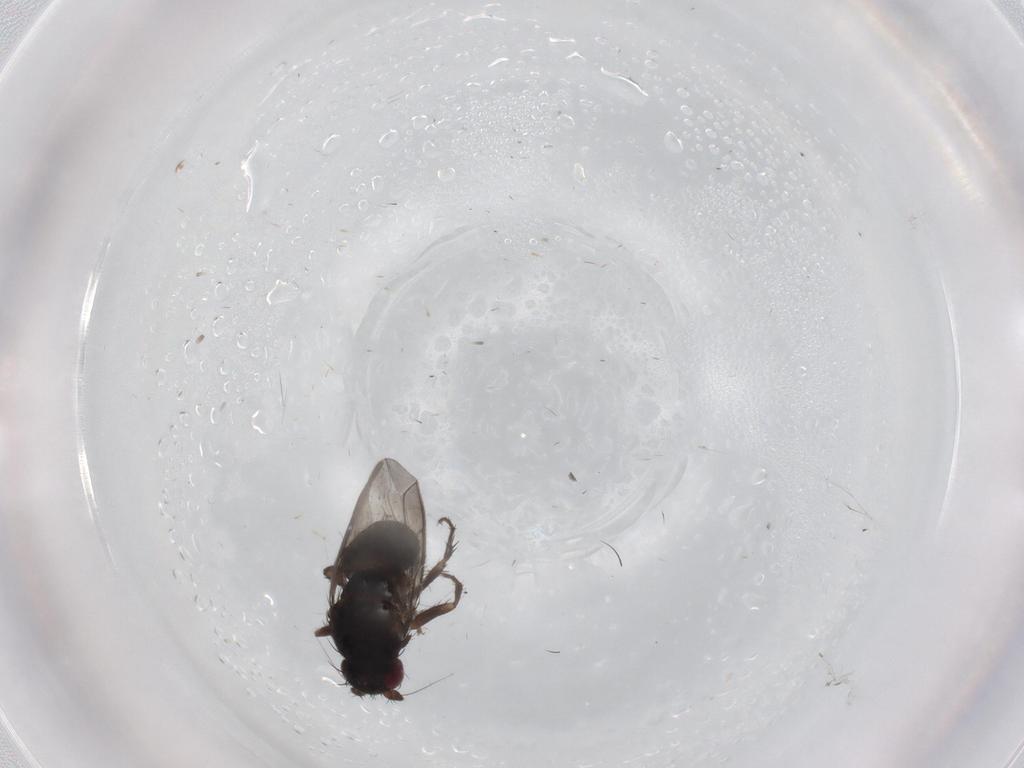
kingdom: Animalia
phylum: Arthropoda
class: Insecta
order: Diptera
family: Sphaeroceridae
